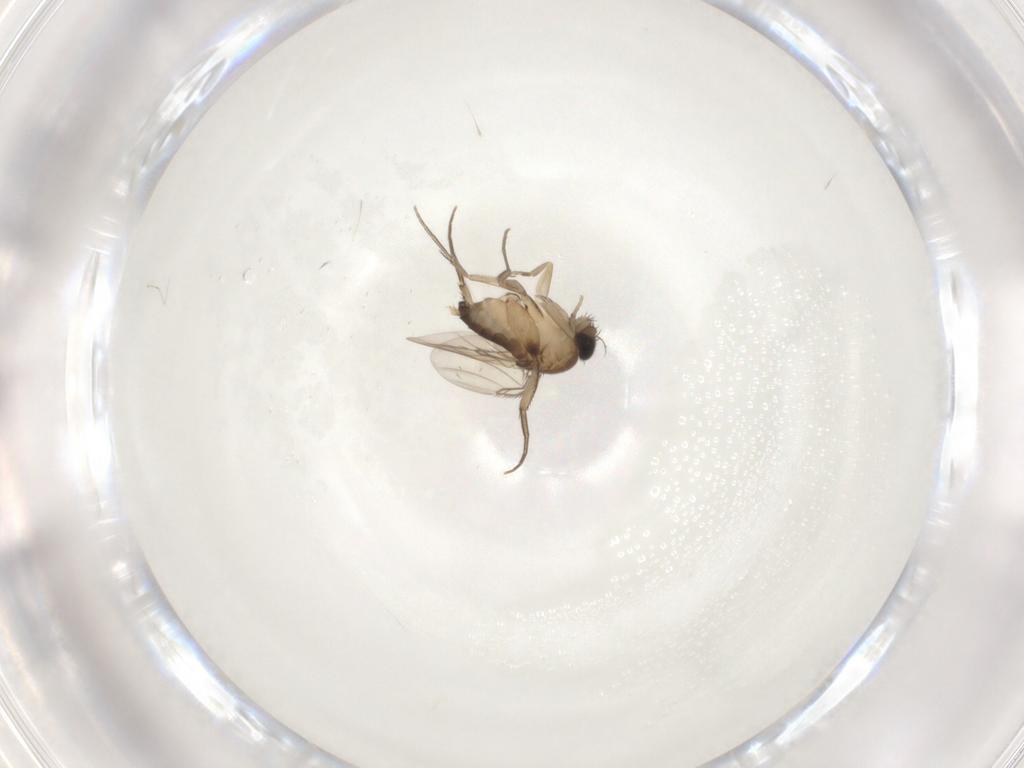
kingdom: Animalia
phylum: Arthropoda
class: Insecta
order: Diptera
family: Phoridae
